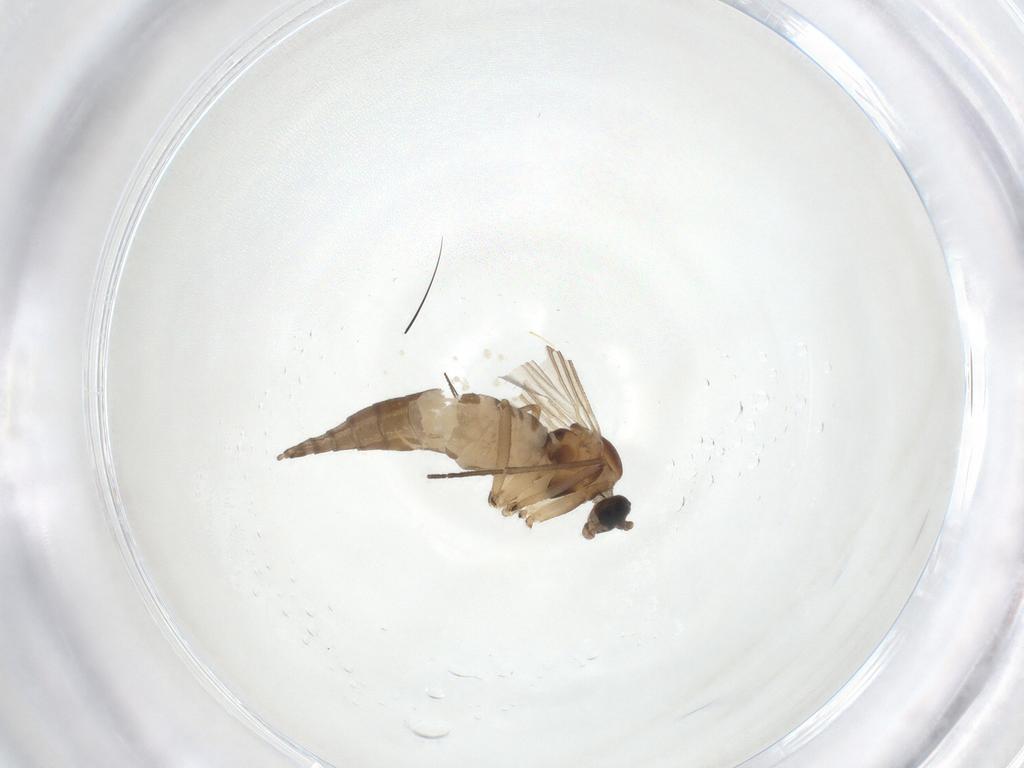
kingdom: Animalia
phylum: Arthropoda
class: Insecta
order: Diptera
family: Sciaridae
